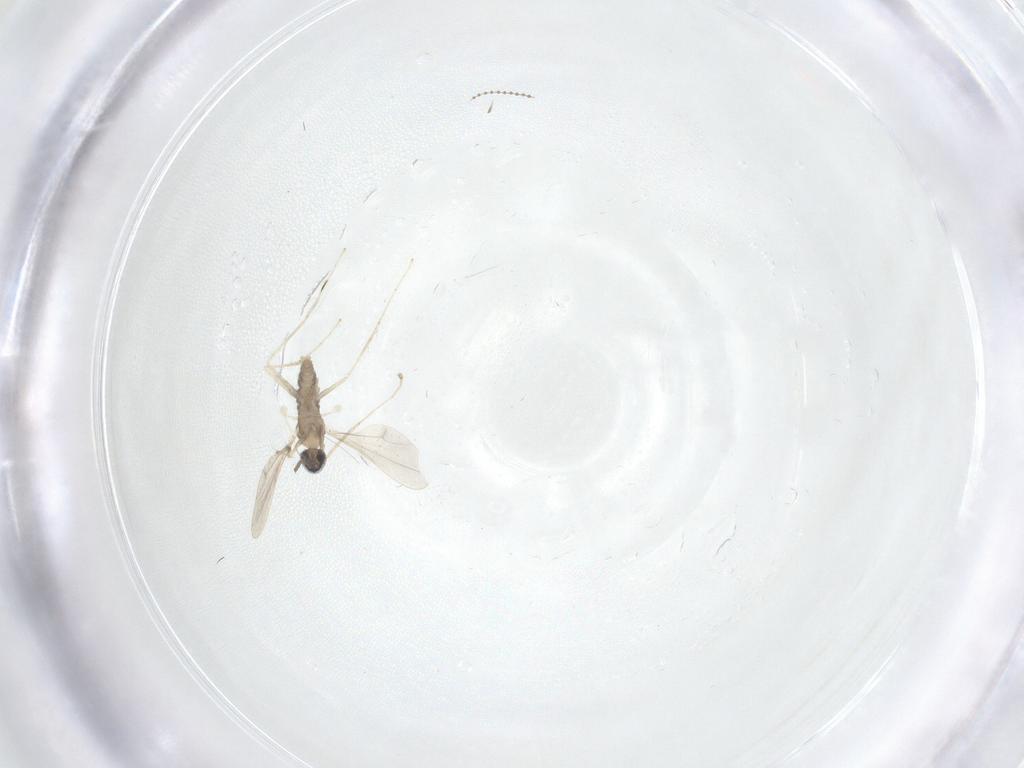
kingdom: Animalia
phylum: Arthropoda
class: Insecta
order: Diptera
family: Cecidomyiidae
